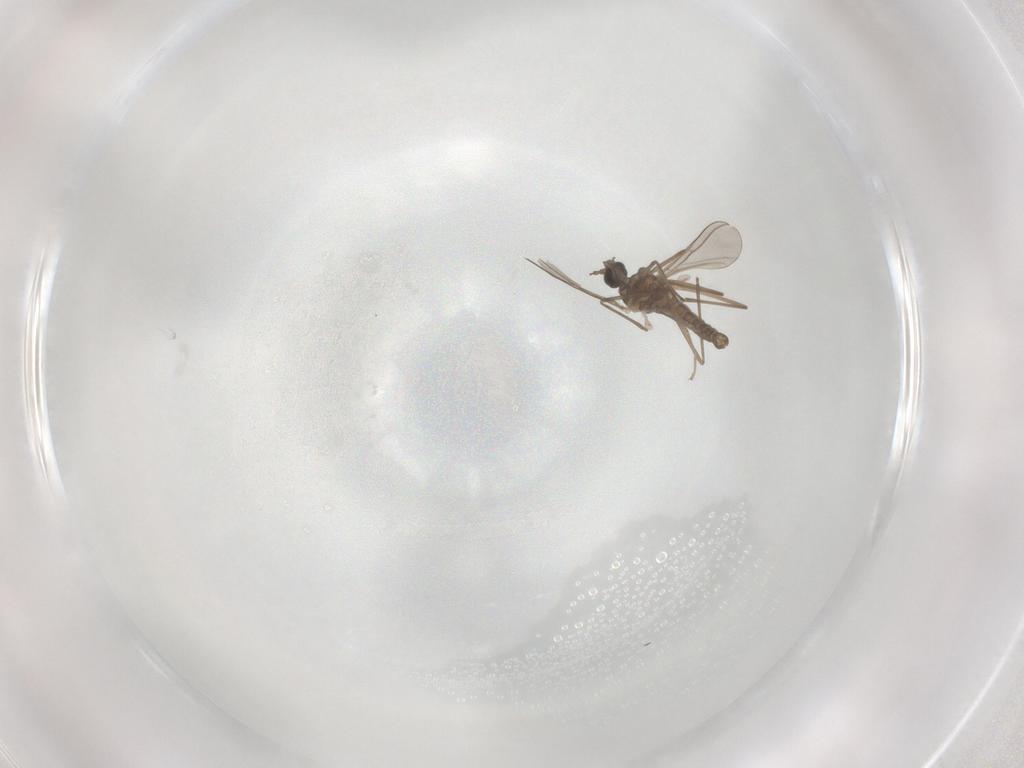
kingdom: Animalia
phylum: Arthropoda
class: Insecta
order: Diptera
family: Cecidomyiidae
